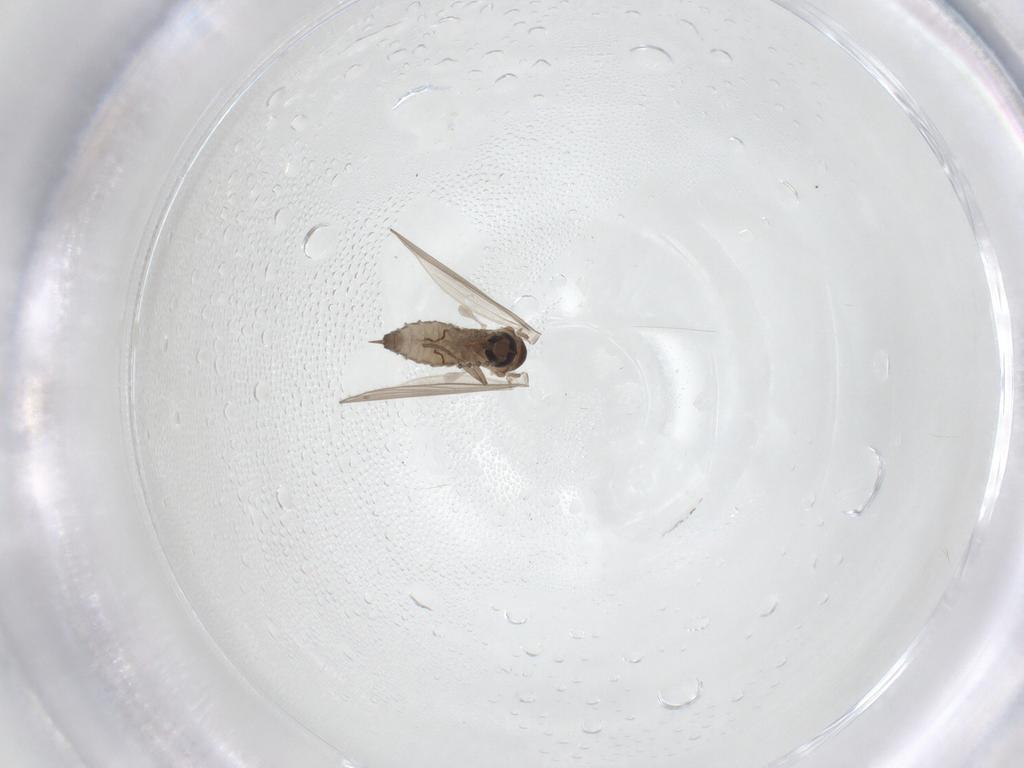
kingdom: Animalia
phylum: Arthropoda
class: Insecta
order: Diptera
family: Psychodidae
